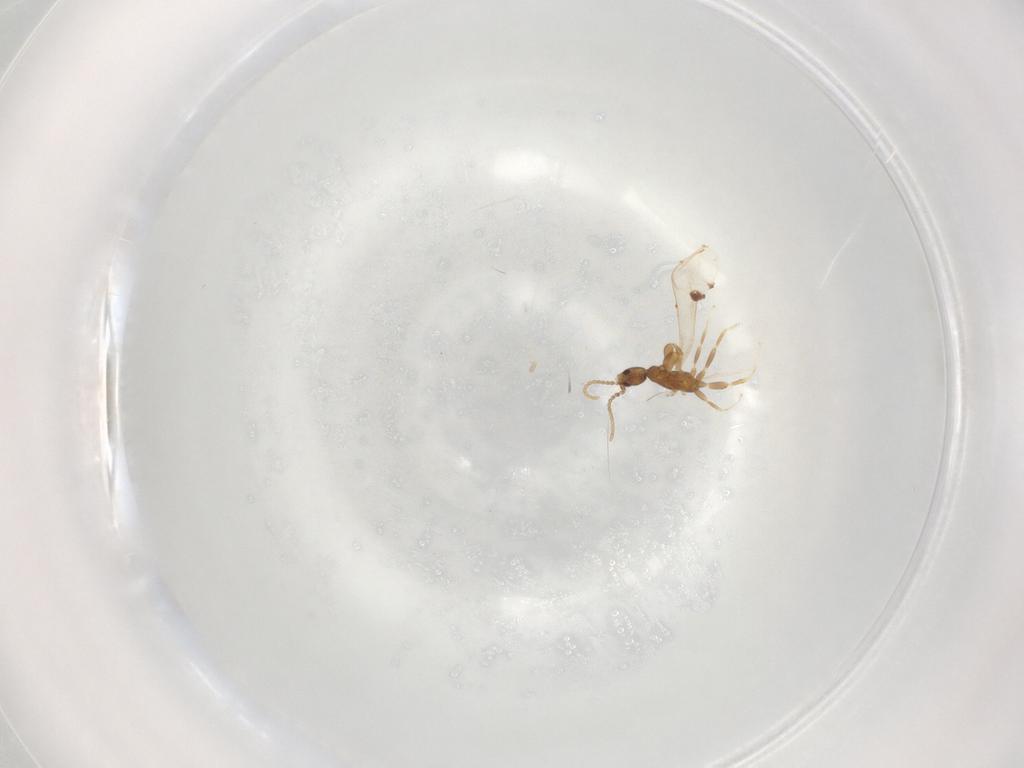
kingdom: Animalia
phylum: Arthropoda
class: Insecta
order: Hymenoptera
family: Formicidae
